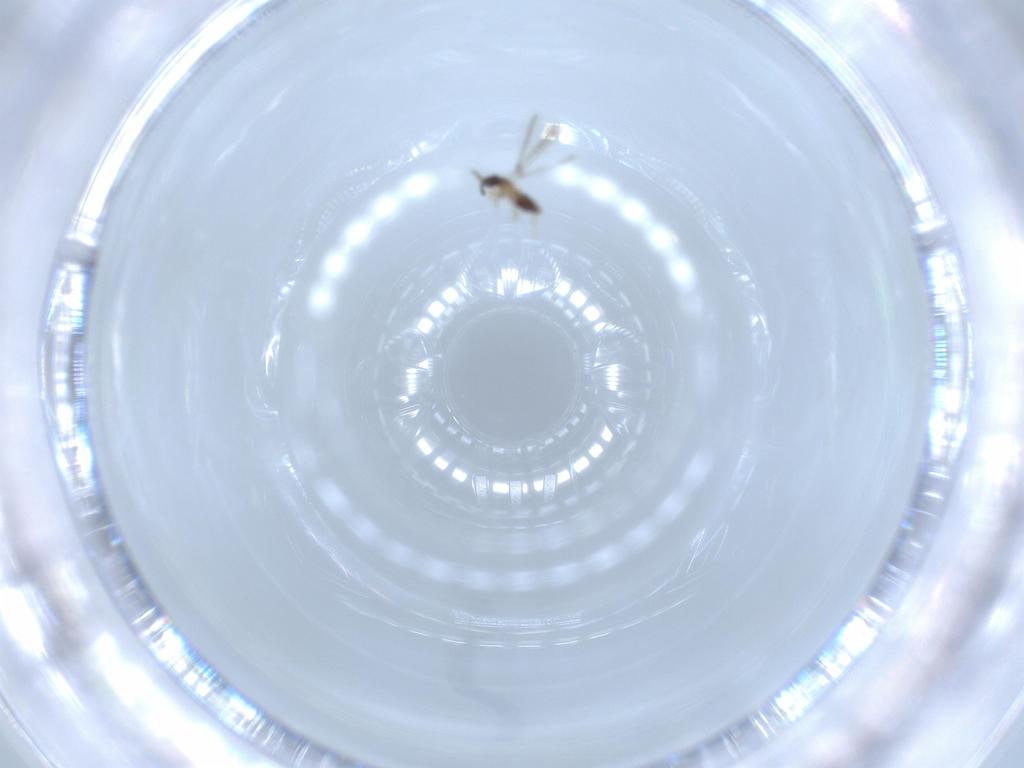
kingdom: Animalia
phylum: Arthropoda
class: Insecta
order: Hymenoptera
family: Mymaridae
